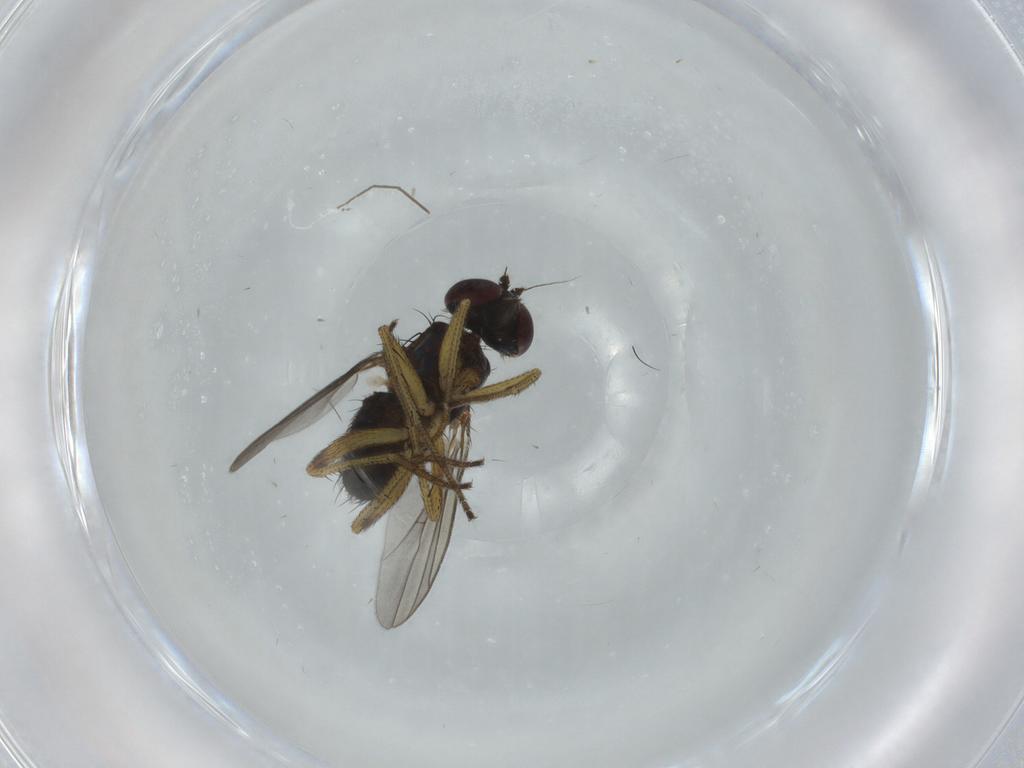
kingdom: Animalia
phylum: Arthropoda
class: Insecta
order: Diptera
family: Dolichopodidae
